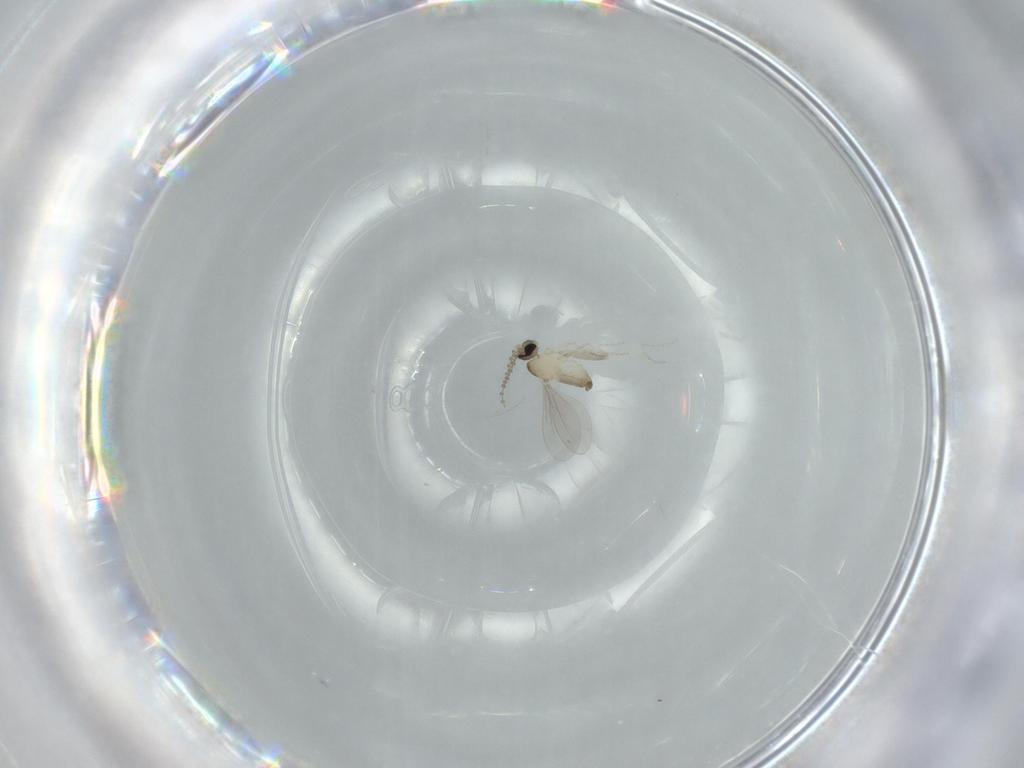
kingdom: Animalia
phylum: Arthropoda
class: Insecta
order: Diptera
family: Cecidomyiidae
